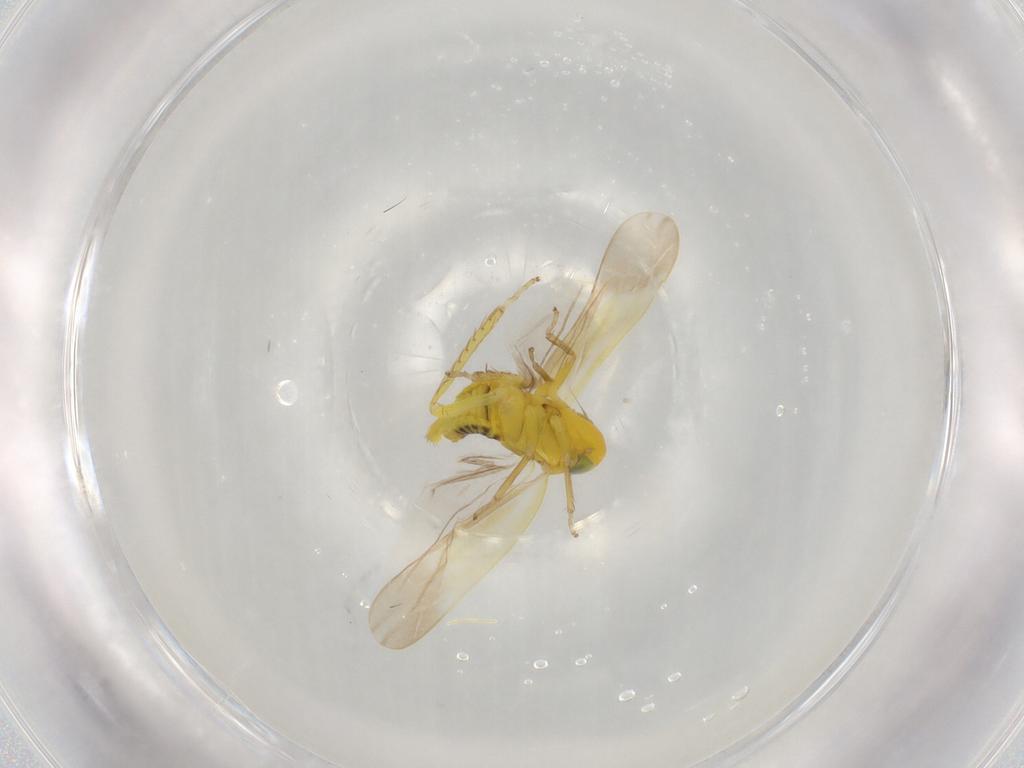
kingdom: Animalia
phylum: Arthropoda
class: Insecta
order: Hemiptera
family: Cicadellidae
